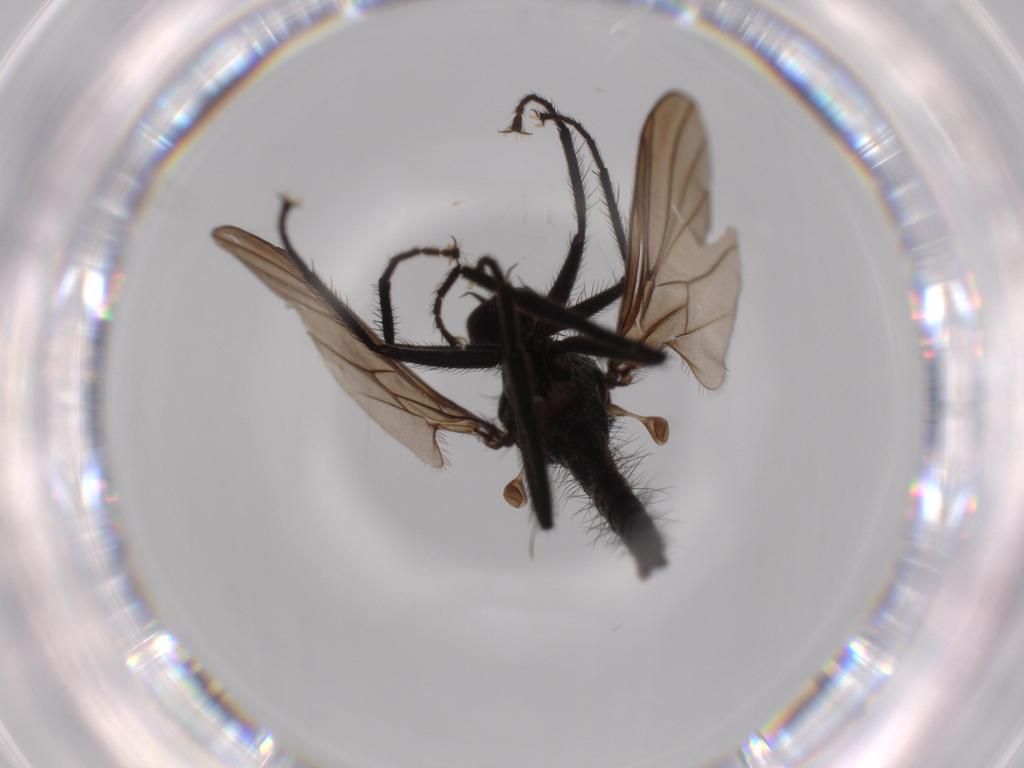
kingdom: Animalia
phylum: Arthropoda
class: Insecta
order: Diptera
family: Hybotidae
